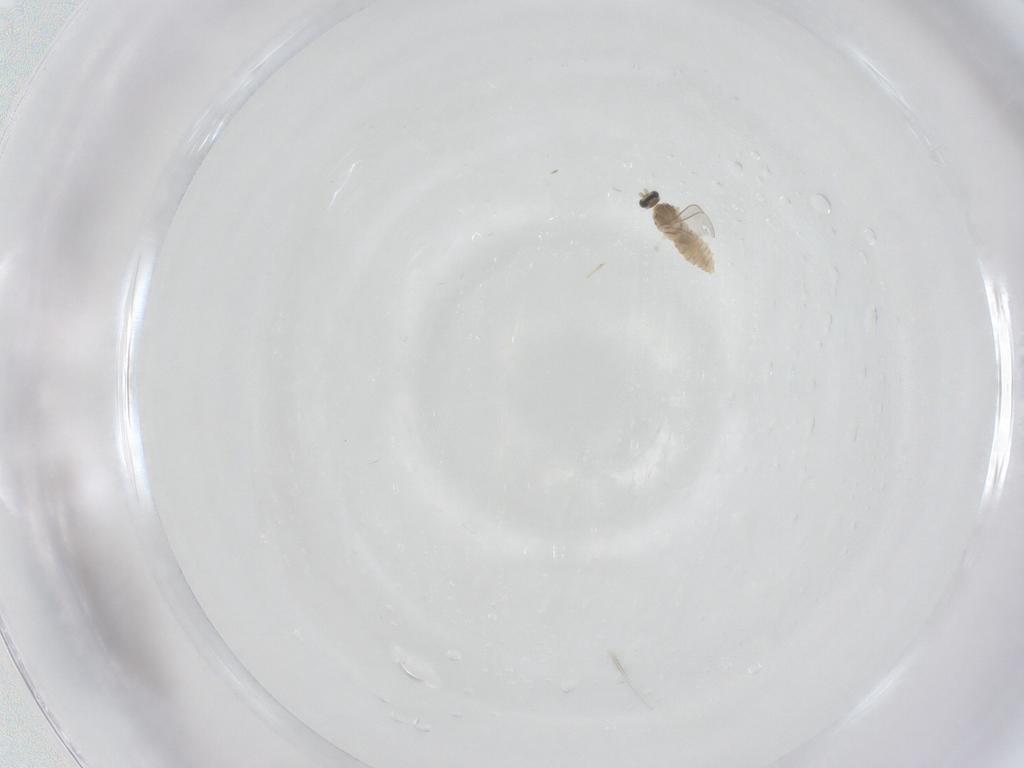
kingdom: Animalia
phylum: Arthropoda
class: Insecta
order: Diptera
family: Cecidomyiidae
